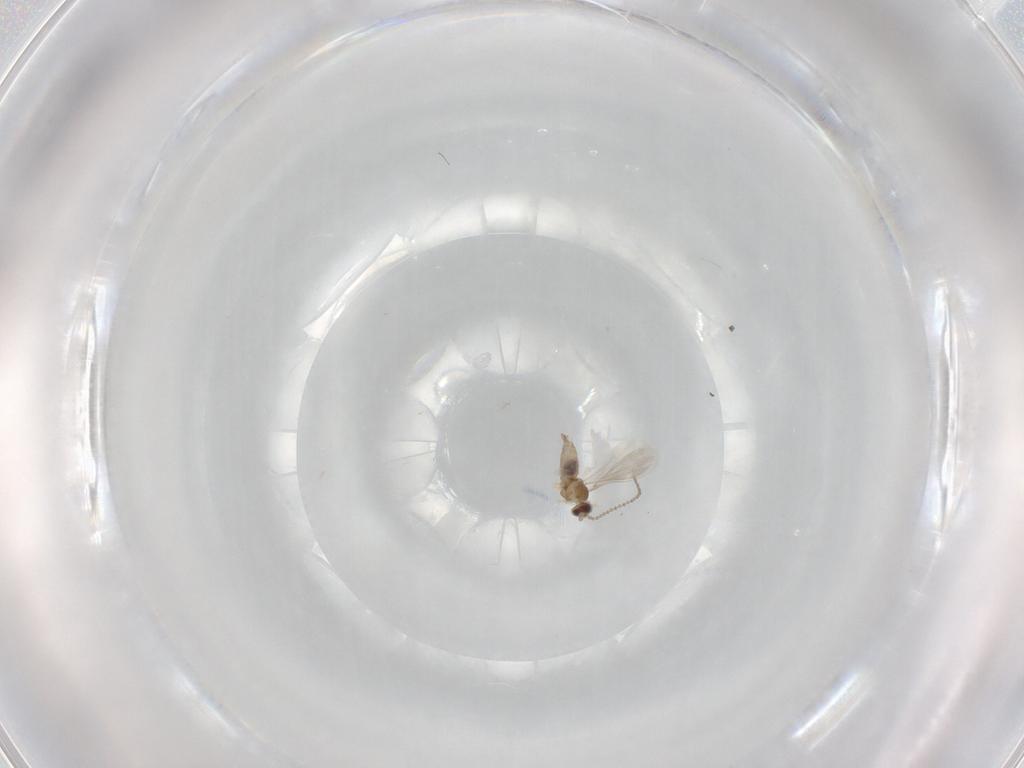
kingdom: Animalia
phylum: Arthropoda
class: Insecta
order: Diptera
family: Cecidomyiidae
